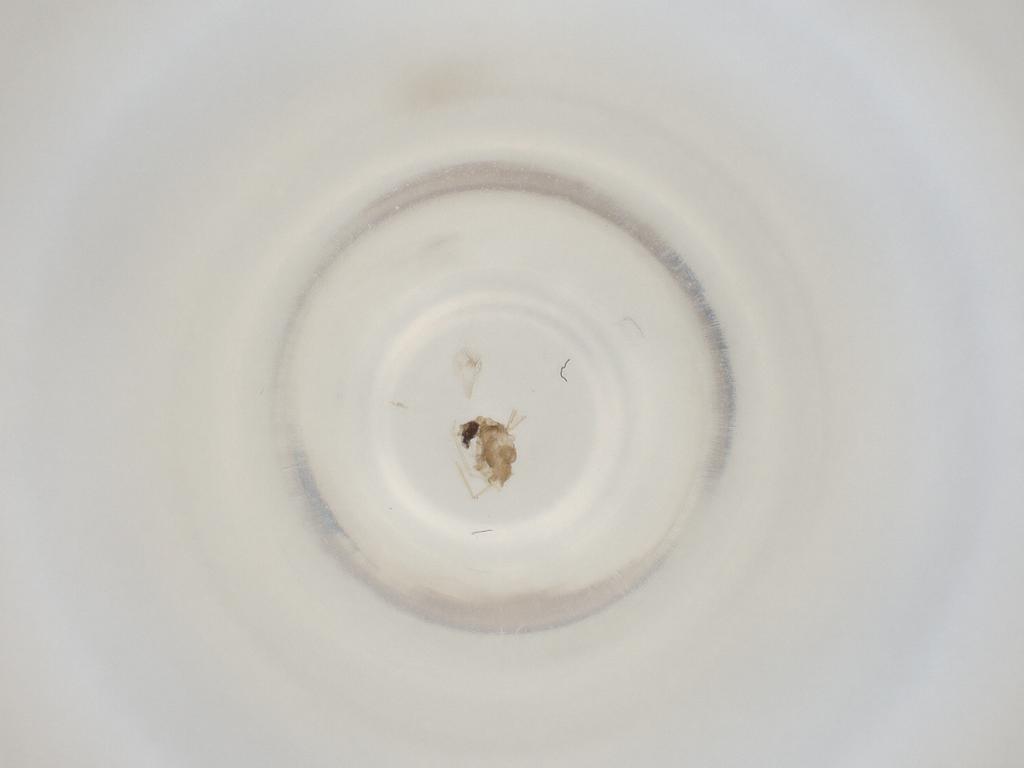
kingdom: Animalia
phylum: Arthropoda
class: Insecta
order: Diptera
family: Cecidomyiidae
